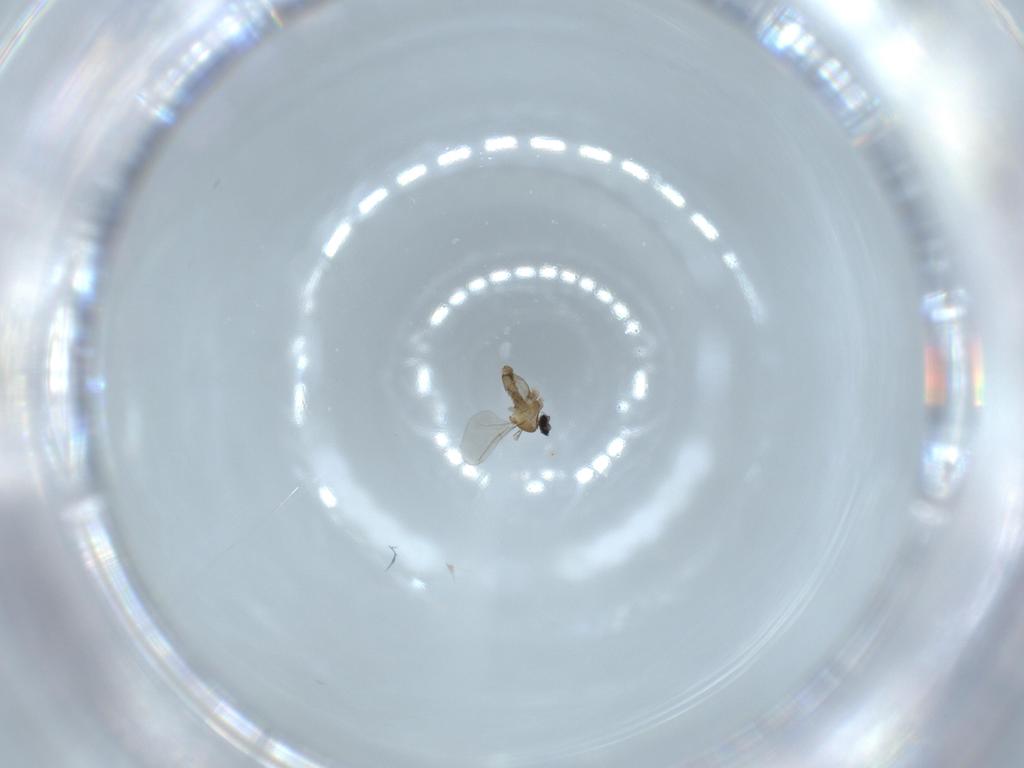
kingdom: Animalia
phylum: Arthropoda
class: Insecta
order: Diptera
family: Cecidomyiidae
